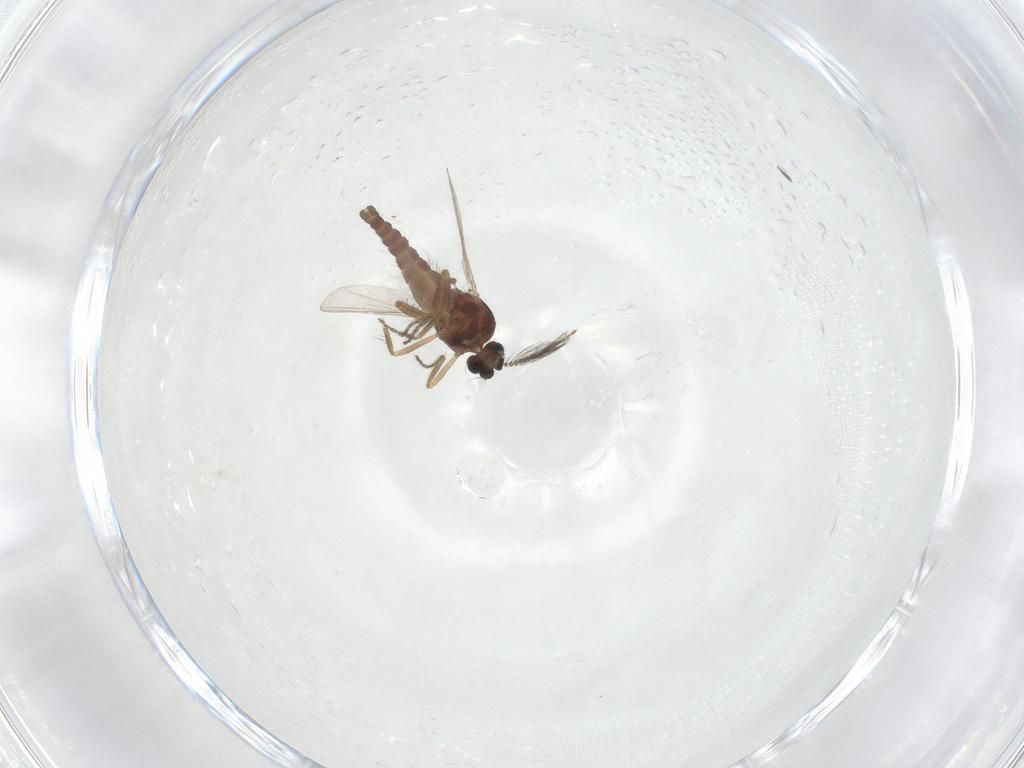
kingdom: Animalia
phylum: Arthropoda
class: Insecta
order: Diptera
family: Ceratopogonidae
